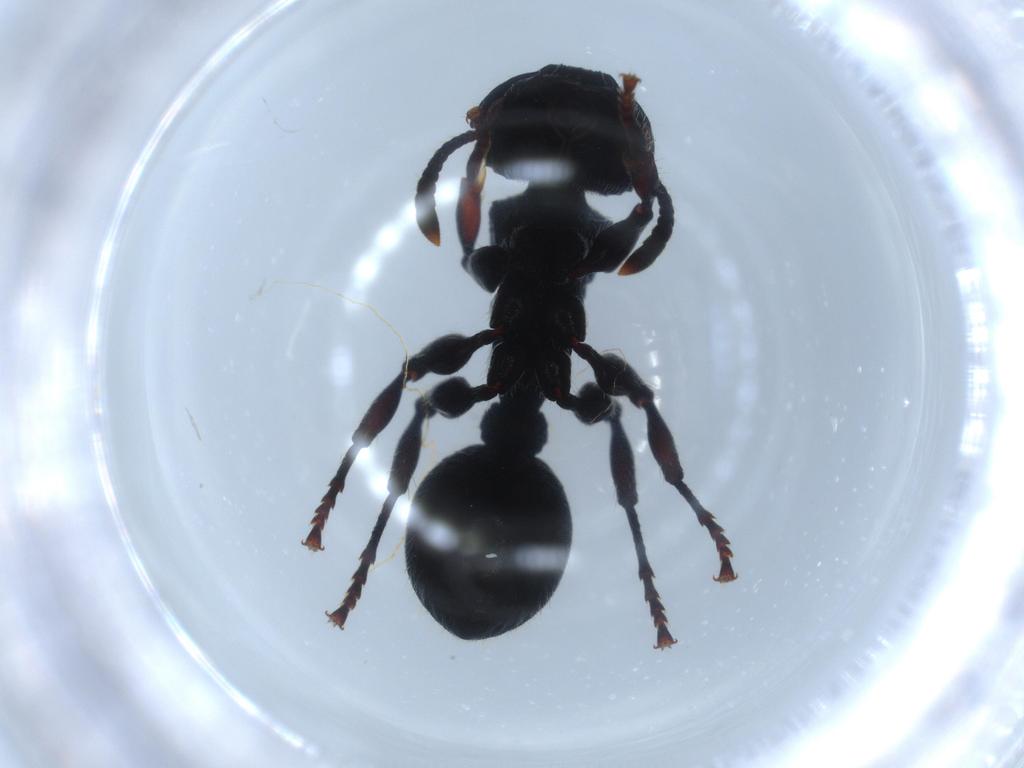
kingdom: Animalia
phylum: Arthropoda
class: Insecta
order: Hymenoptera
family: Formicidae
